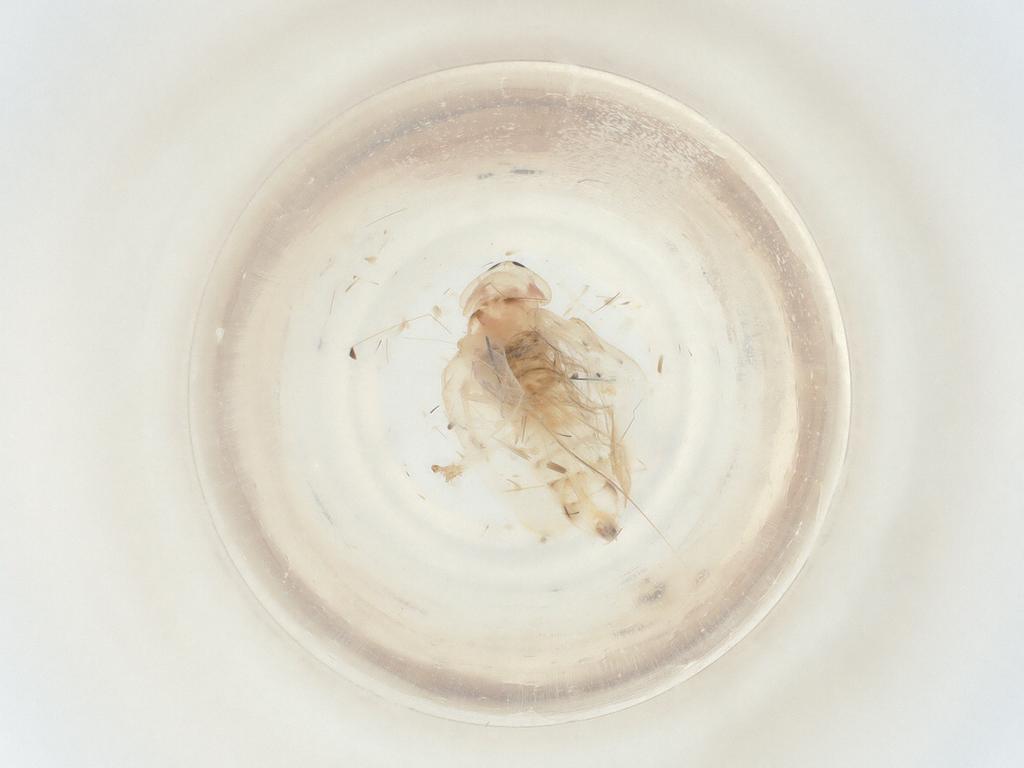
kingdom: Animalia
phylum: Arthropoda
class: Insecta
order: Hemiptera
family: Cicadellidae
